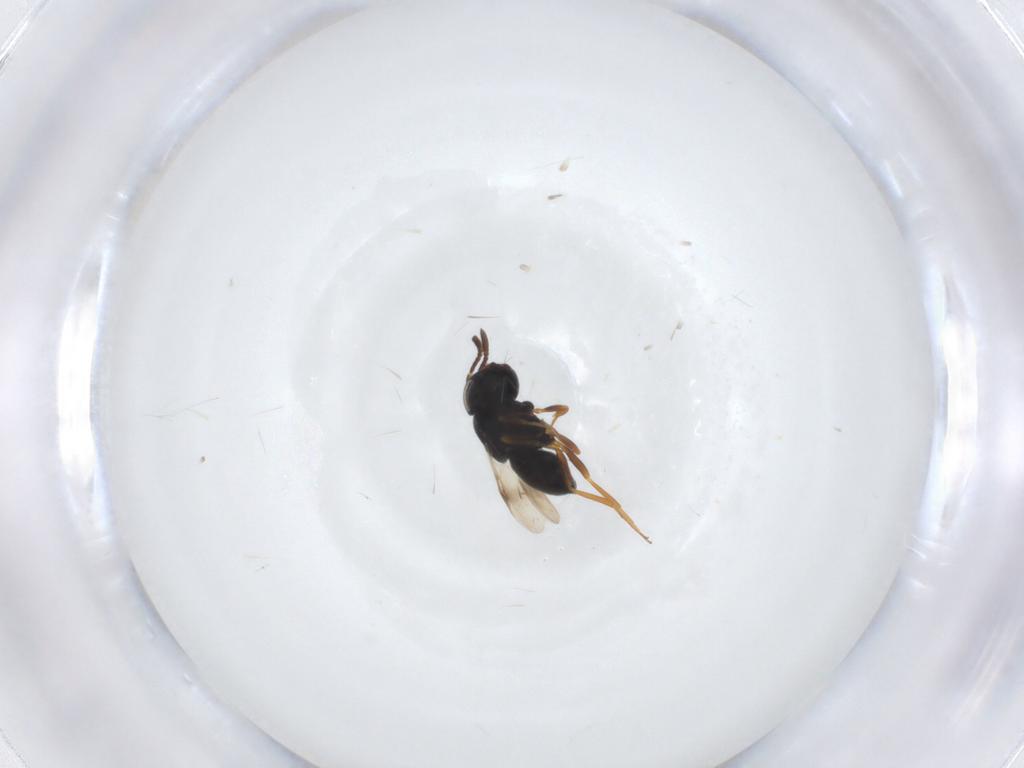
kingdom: Animalia
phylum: Arthropoda
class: Insecta
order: Hymenoptera
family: Scelionidae
